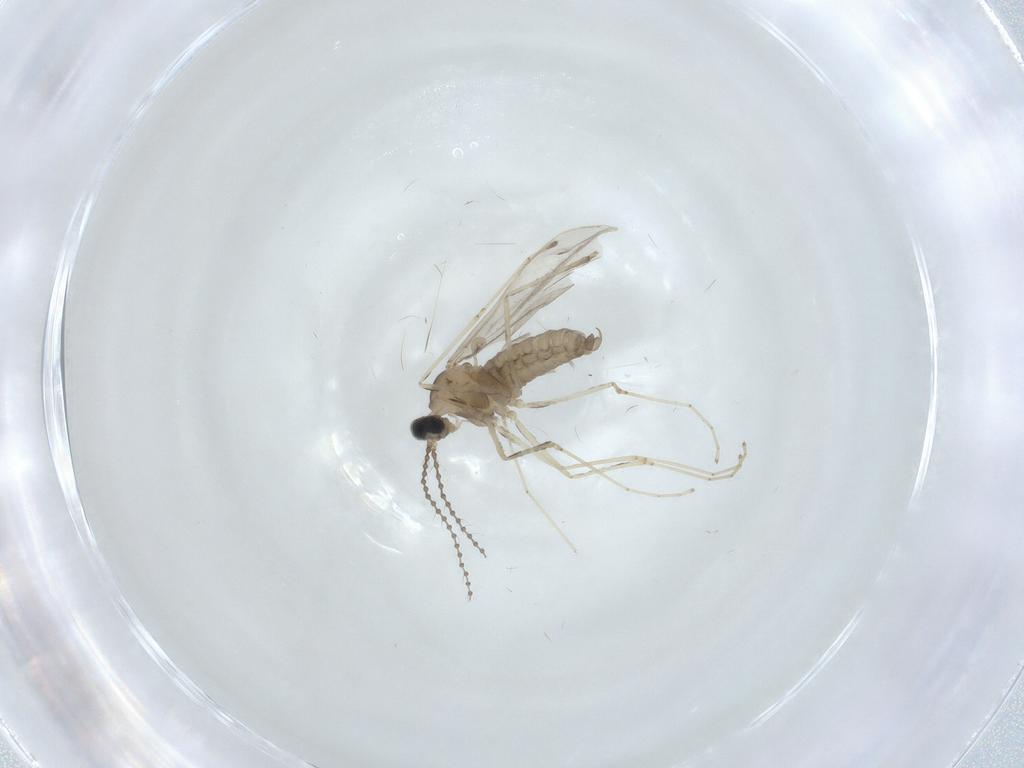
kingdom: Animalia
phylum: Arthropoda
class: Insecta
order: Diptera
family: Cecidomyiidae
